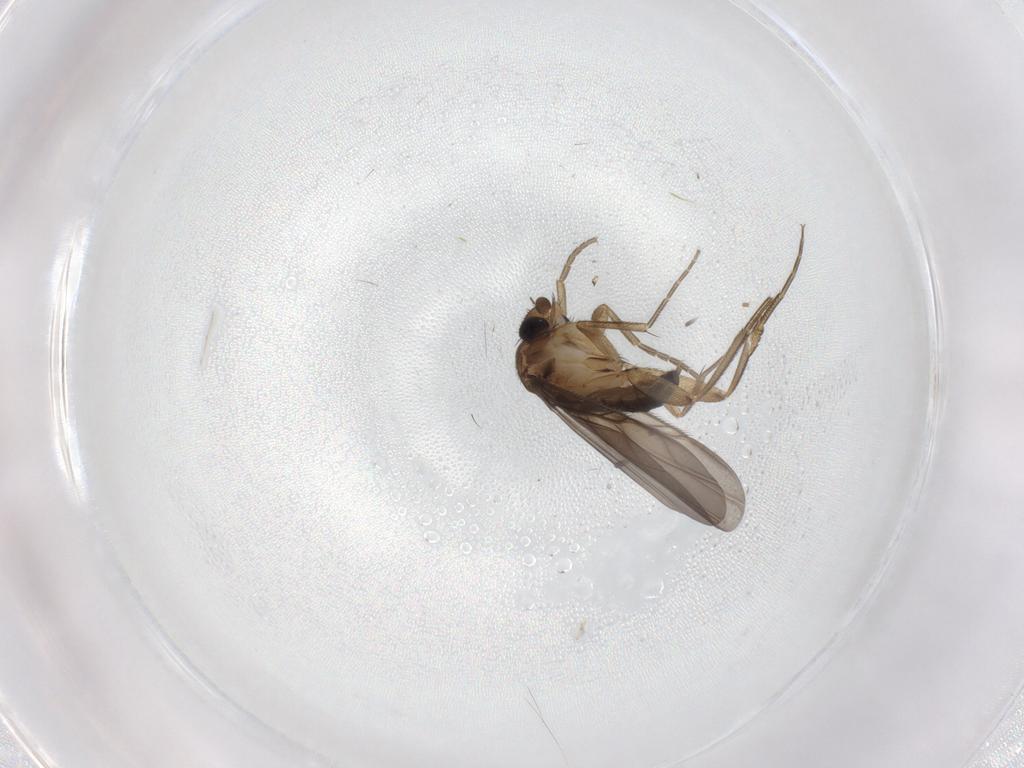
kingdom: Animalia
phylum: Arthropoda
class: Insecta
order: Diptera
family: Phoridae
